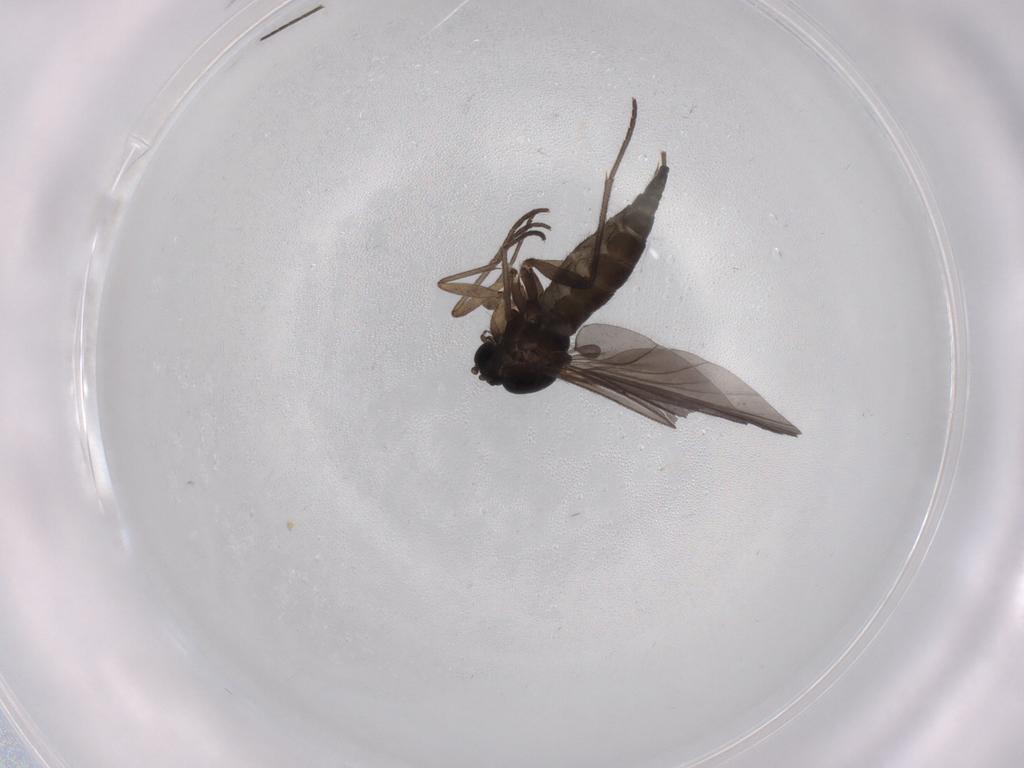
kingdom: Animalia
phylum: Arthropoda
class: Insecta
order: Diptera
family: Sciaridae
